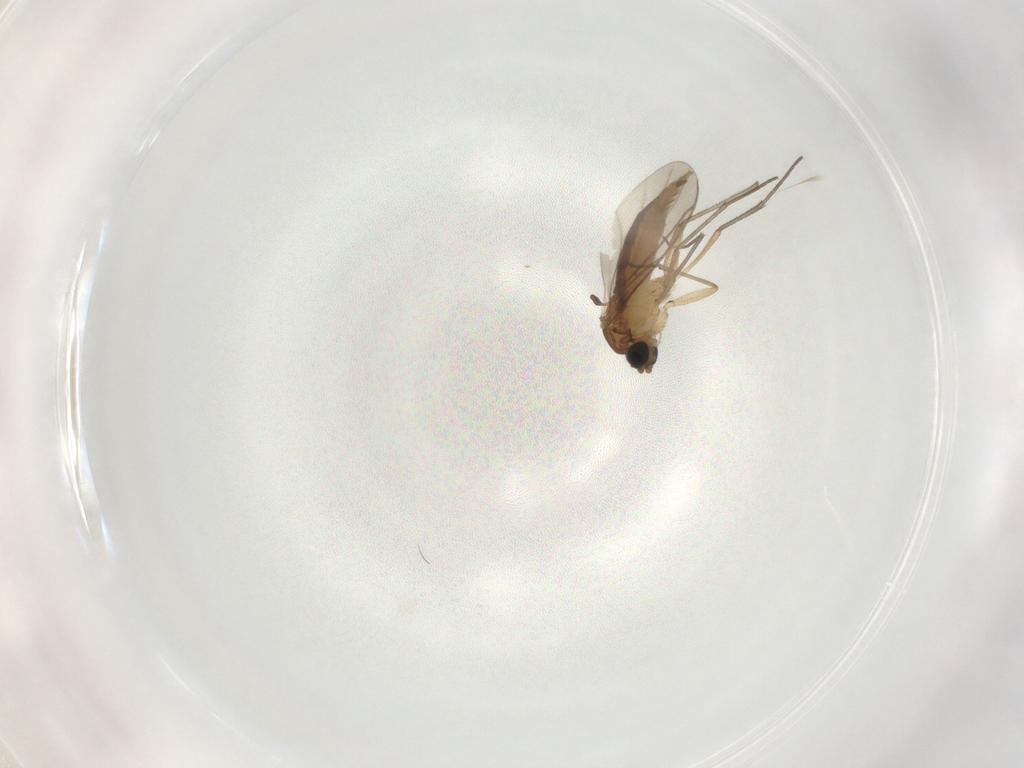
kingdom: Animalia
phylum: Arthropoda
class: Insecta
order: Diptera
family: Sciaridae
